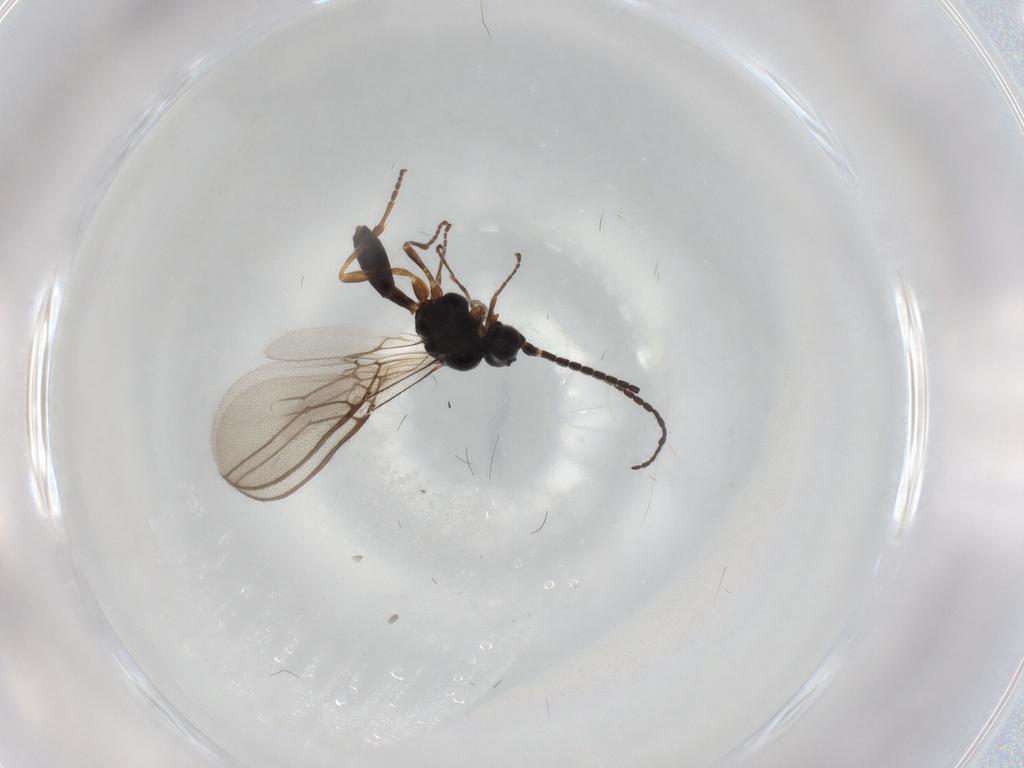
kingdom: Animalia
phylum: Arthropoda
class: Insecta
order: Hymenoptera
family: Braconidae
